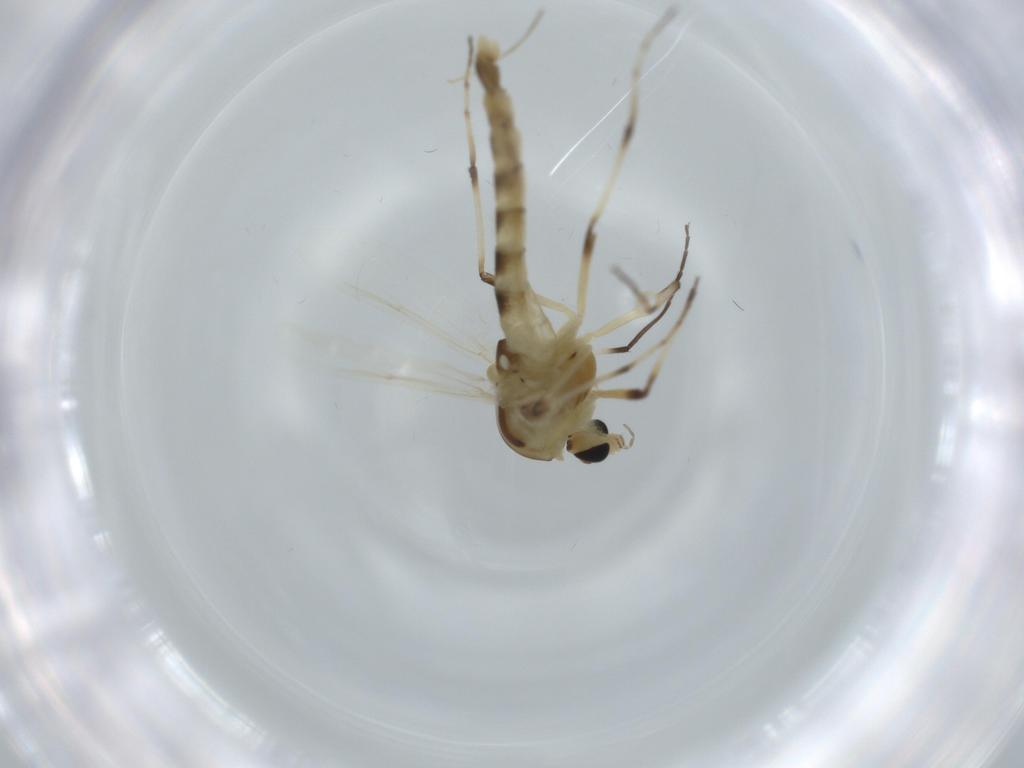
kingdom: Animalia
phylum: Arthropoda
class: Insecta
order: Diptera
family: Chironomidae
